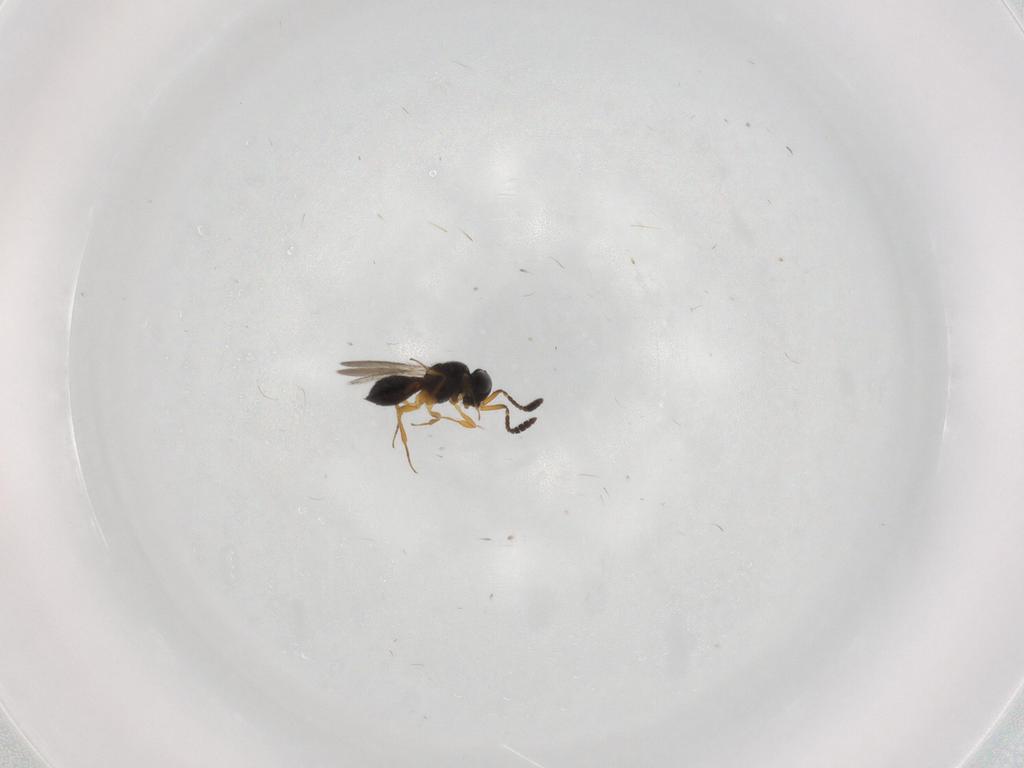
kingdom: Animalia
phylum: Arthropoda
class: Insecta
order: Hymenoptera
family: Scelionidae
